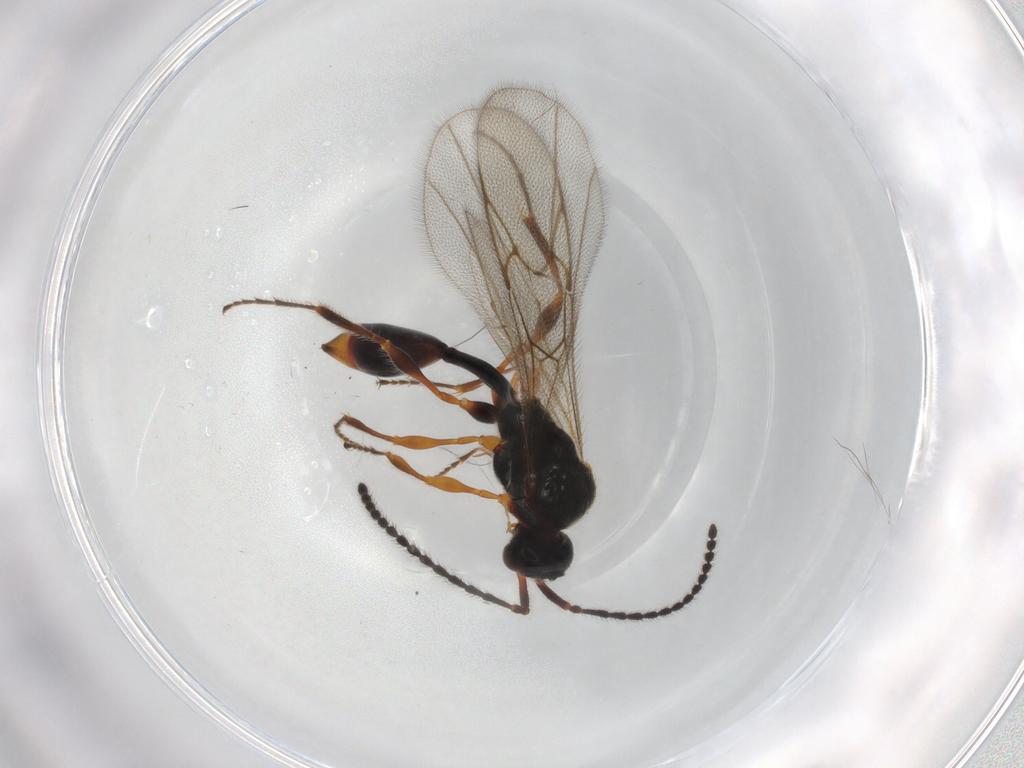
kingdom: Animalia
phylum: Arthropoda
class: Insecta
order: Hymenoptera
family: Diapriidae
